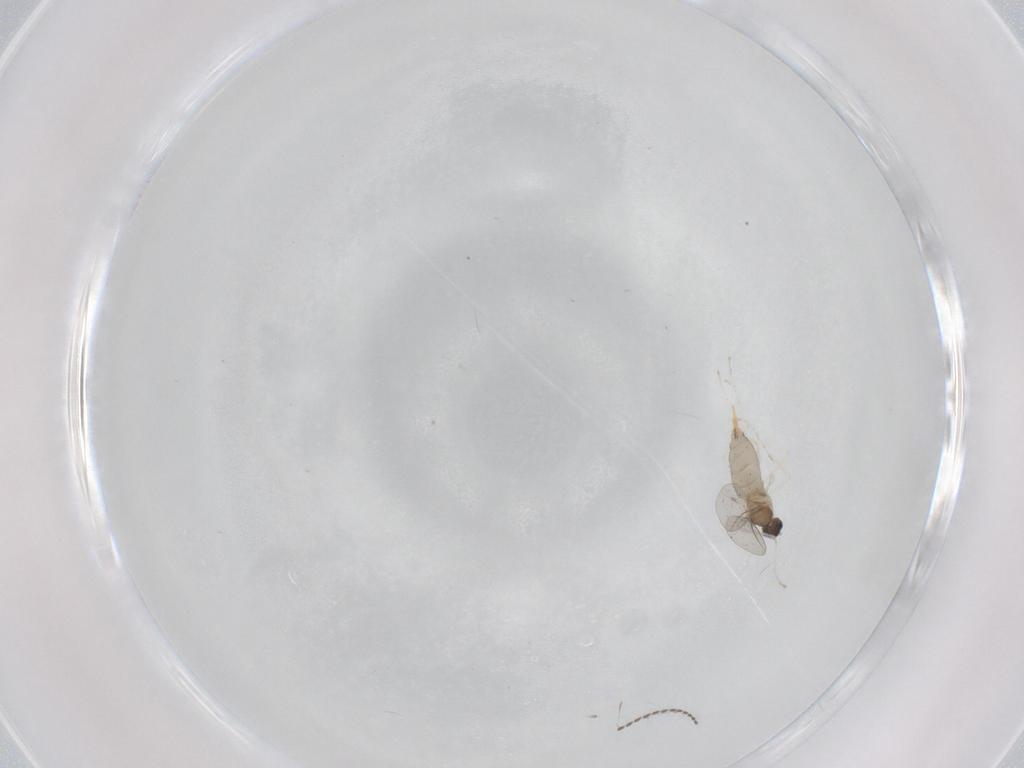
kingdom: Animalia
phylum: Arthropoda
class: Insecta
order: Diptera
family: Cecidomyiidae
